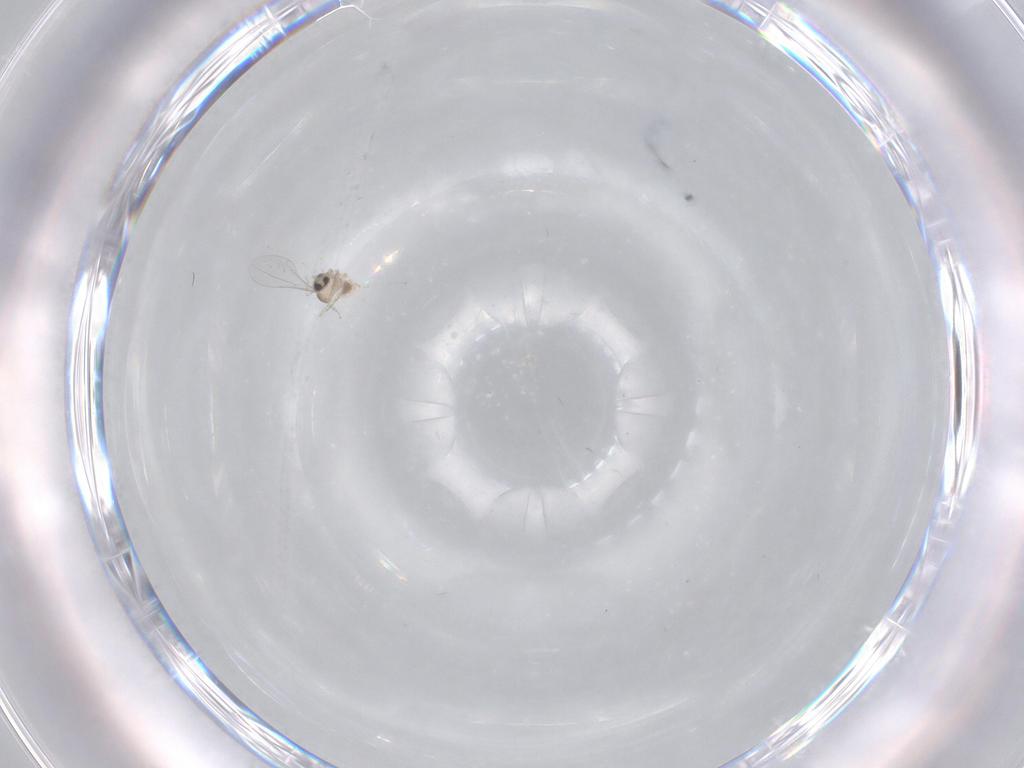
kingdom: Animalia
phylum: Arthropoda
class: Insecta
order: Diptera
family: Cecidomyiidae
